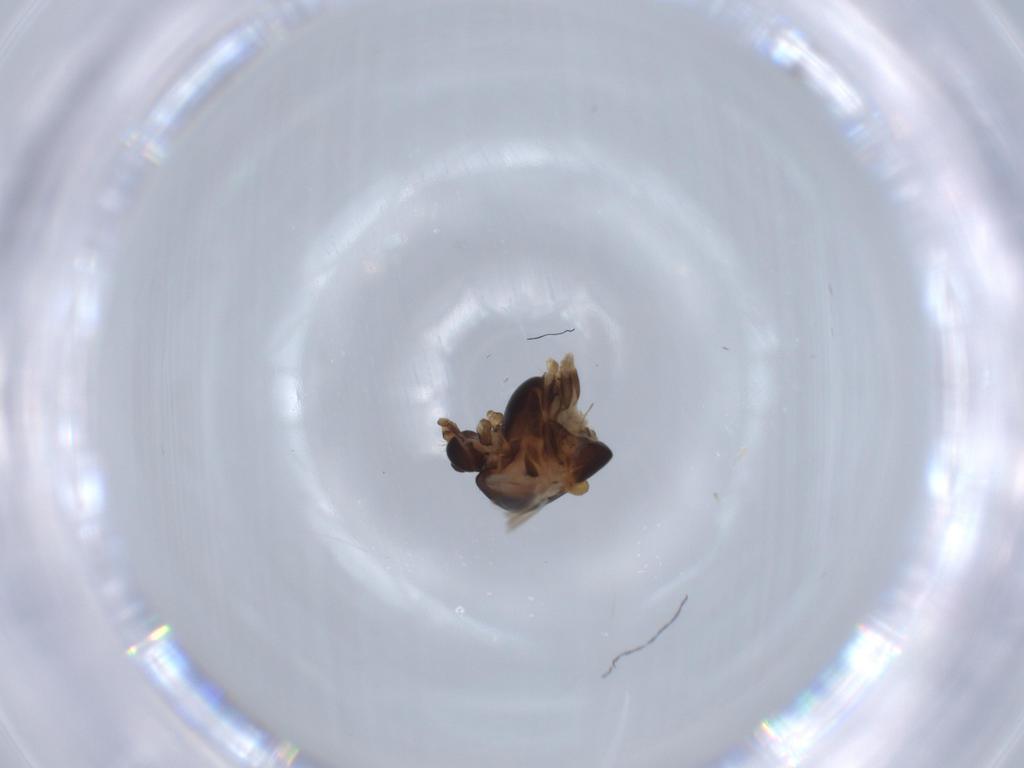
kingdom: Animalia
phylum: Arthropoda
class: Insecta
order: Diptera
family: Chironomidae
